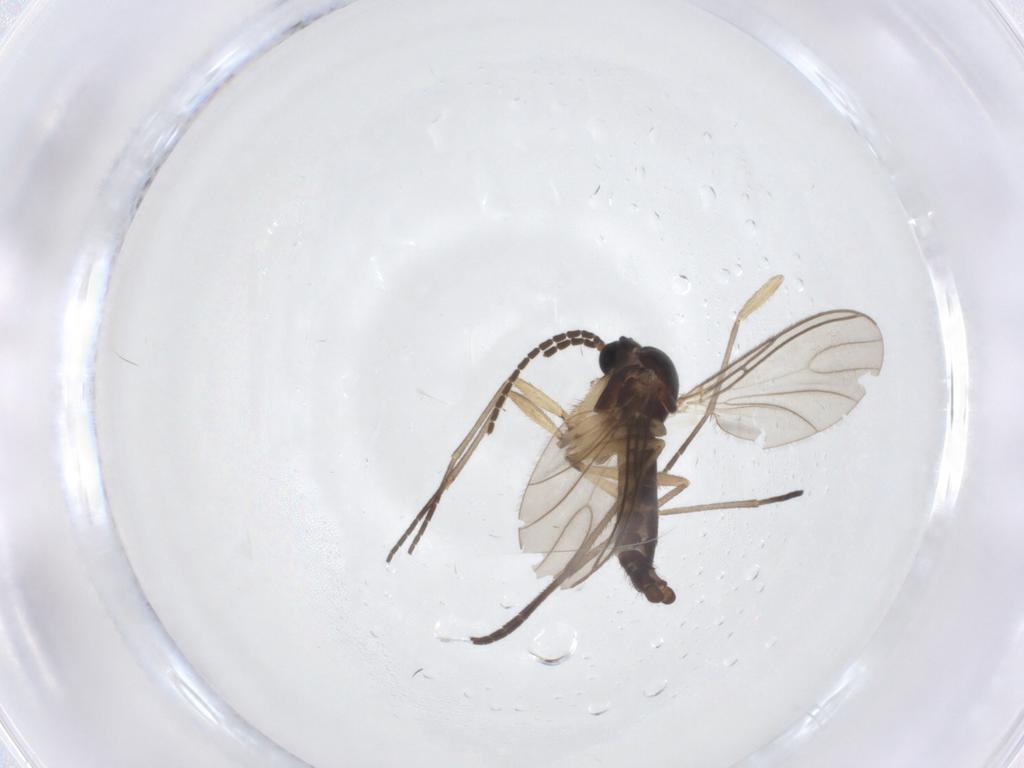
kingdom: Animalia
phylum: Arthropoda
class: Insecta
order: Diptera
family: Sciaridae
